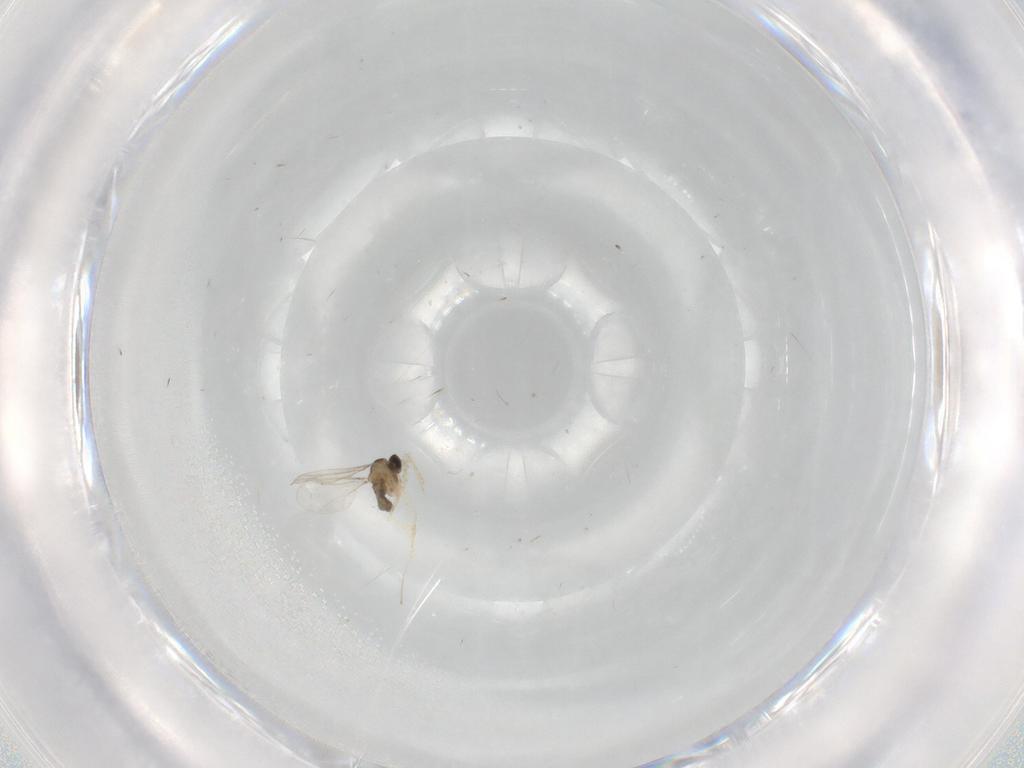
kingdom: Animalia
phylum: Arthropoda
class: Insecta
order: Diptera
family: Cecidomyiidae
